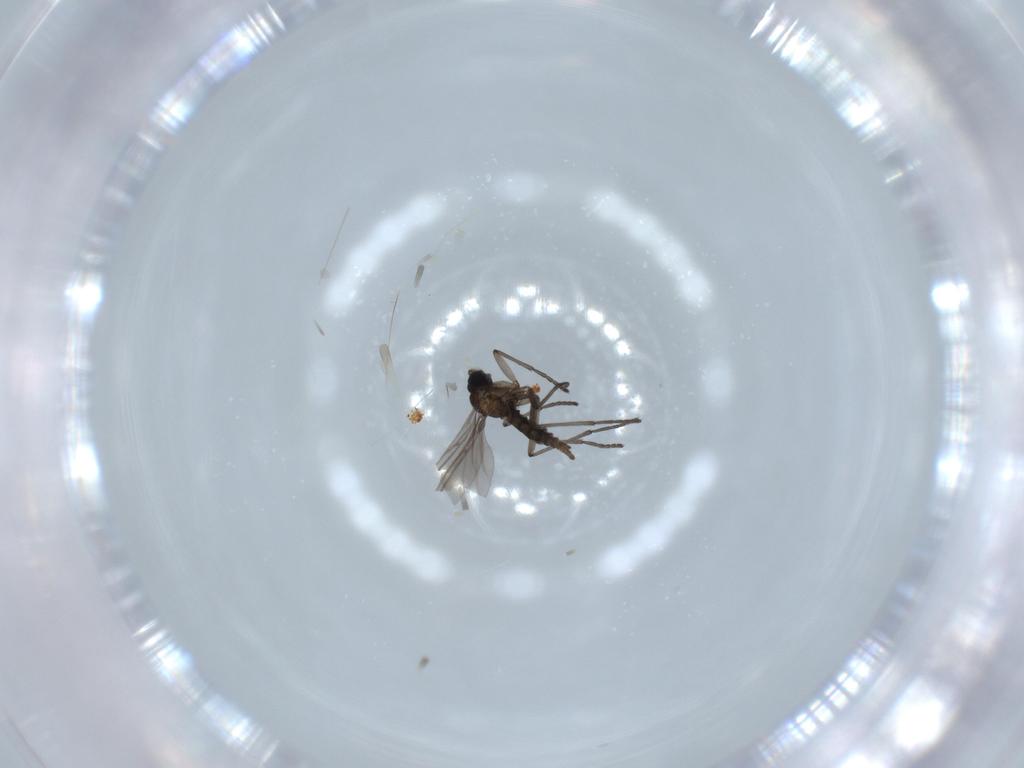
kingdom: Animalia
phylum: Arthropoda
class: Insecta
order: Diptera
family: Sciaridae
